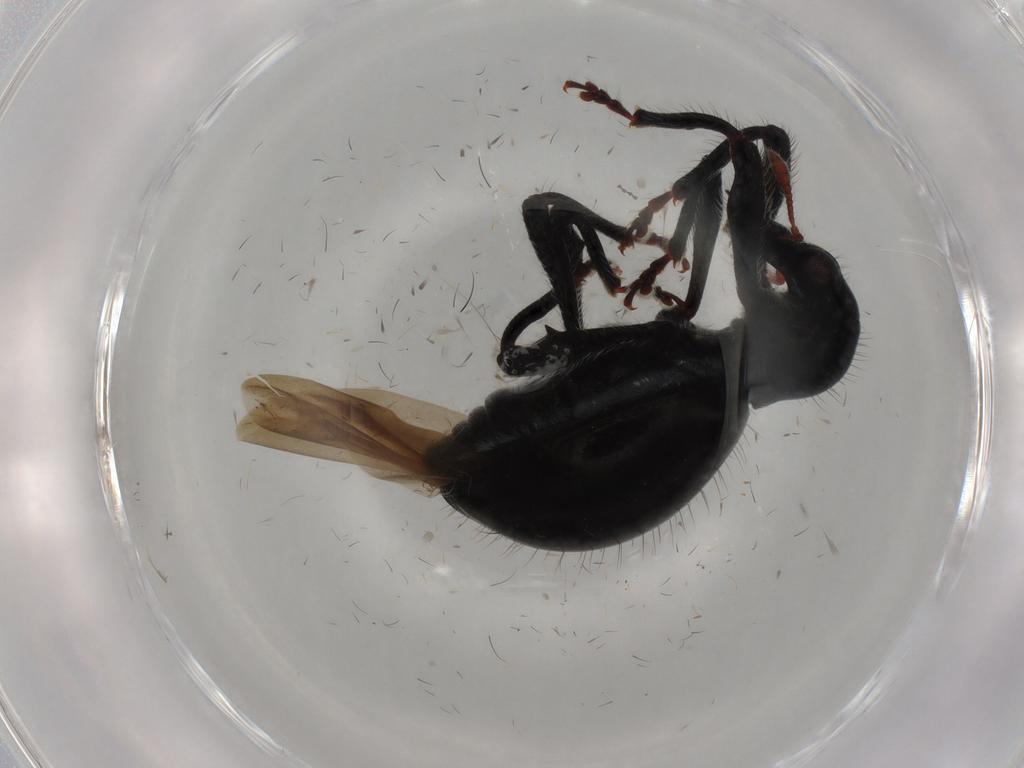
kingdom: Animalia
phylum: Arthropoda
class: Insecta
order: Coleoptera
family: Curculionidae
